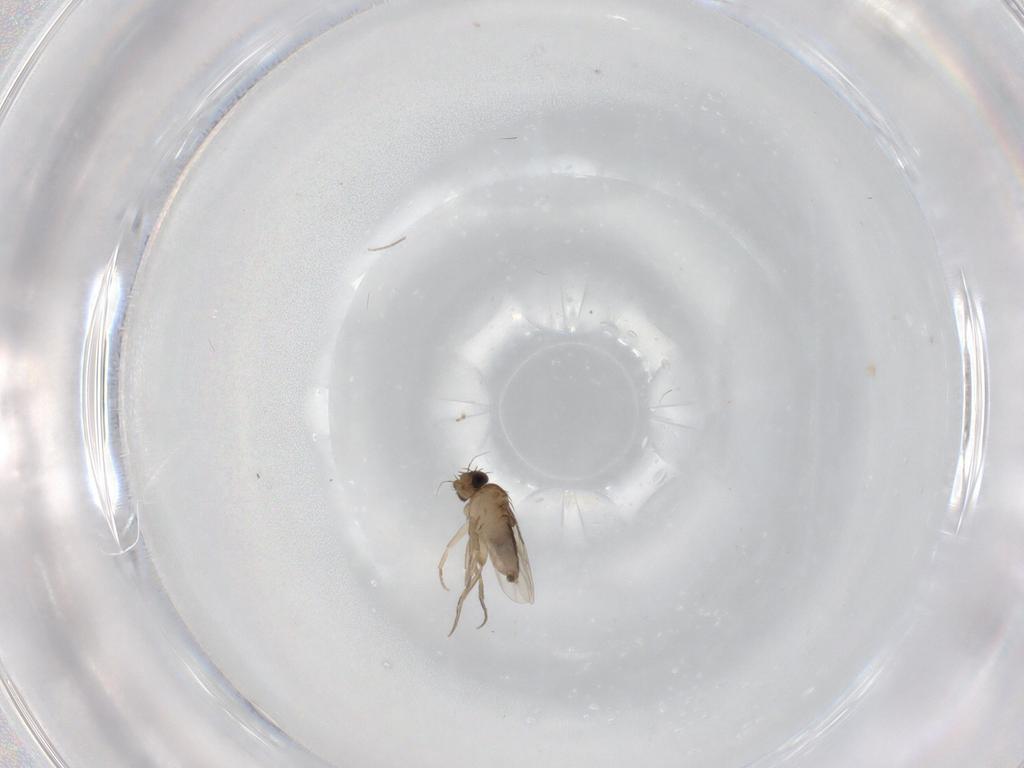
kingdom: Animalia
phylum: Arthropoda
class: Insecta
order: Diptera
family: Phoridae
